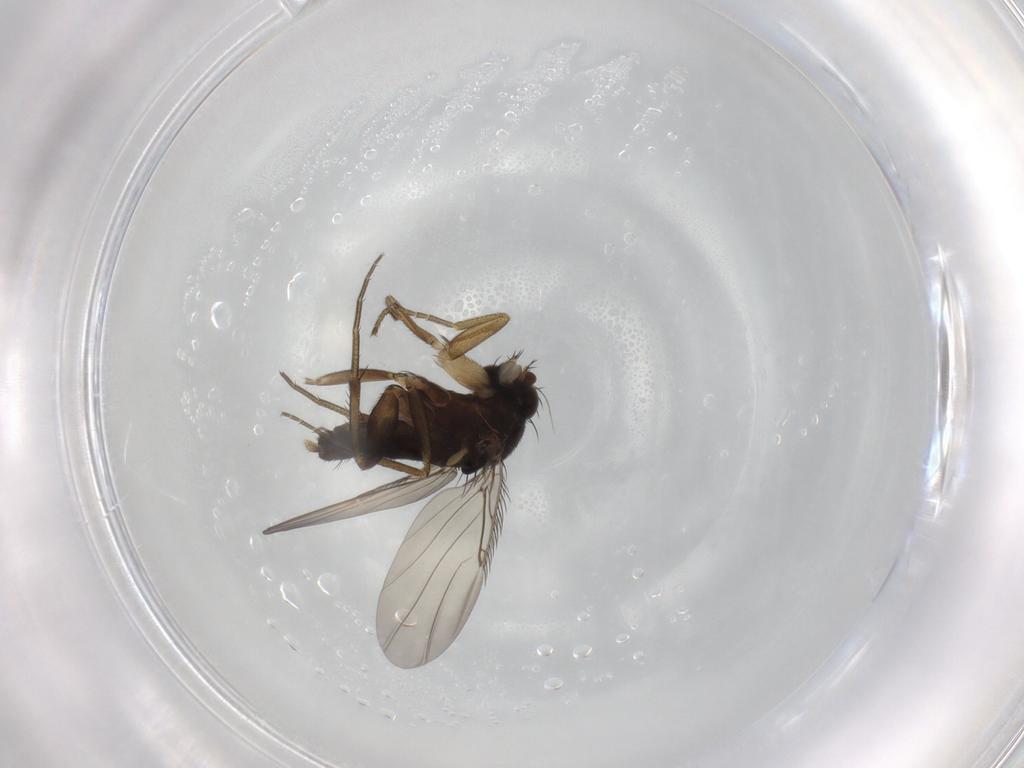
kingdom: Animalia
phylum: Arthropoda
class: Insecta
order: Diptera
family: Phoridae
